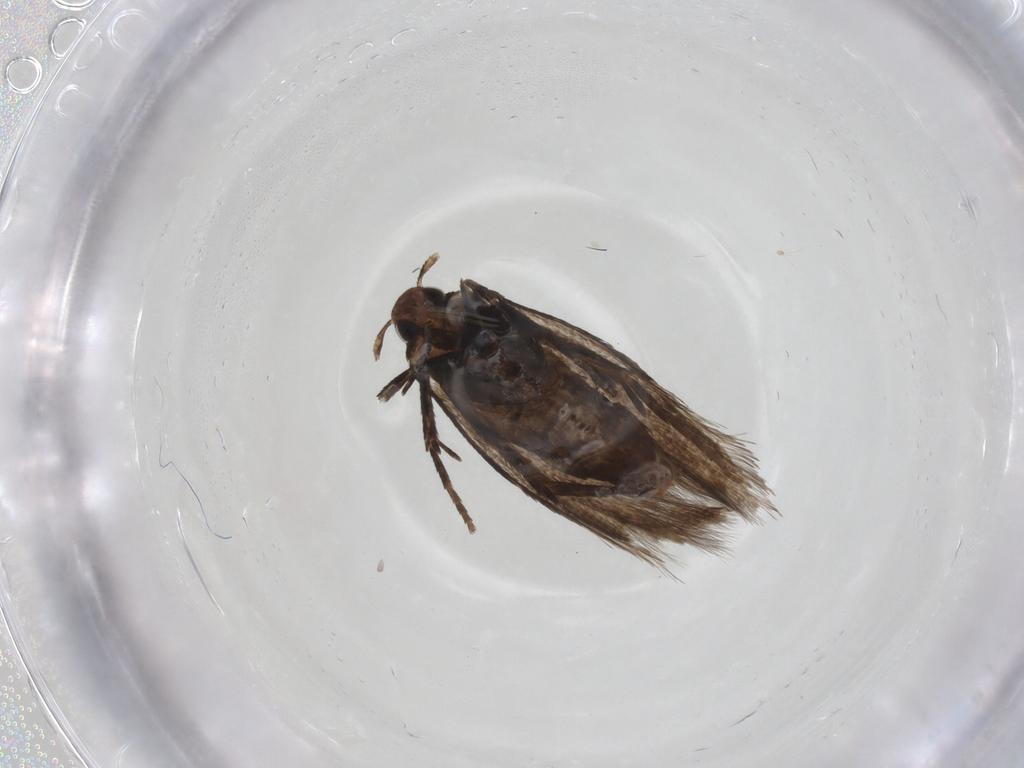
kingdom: Animalia
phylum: Arthropoda
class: Insecta
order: Lepidoptera
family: Gelechiidae
